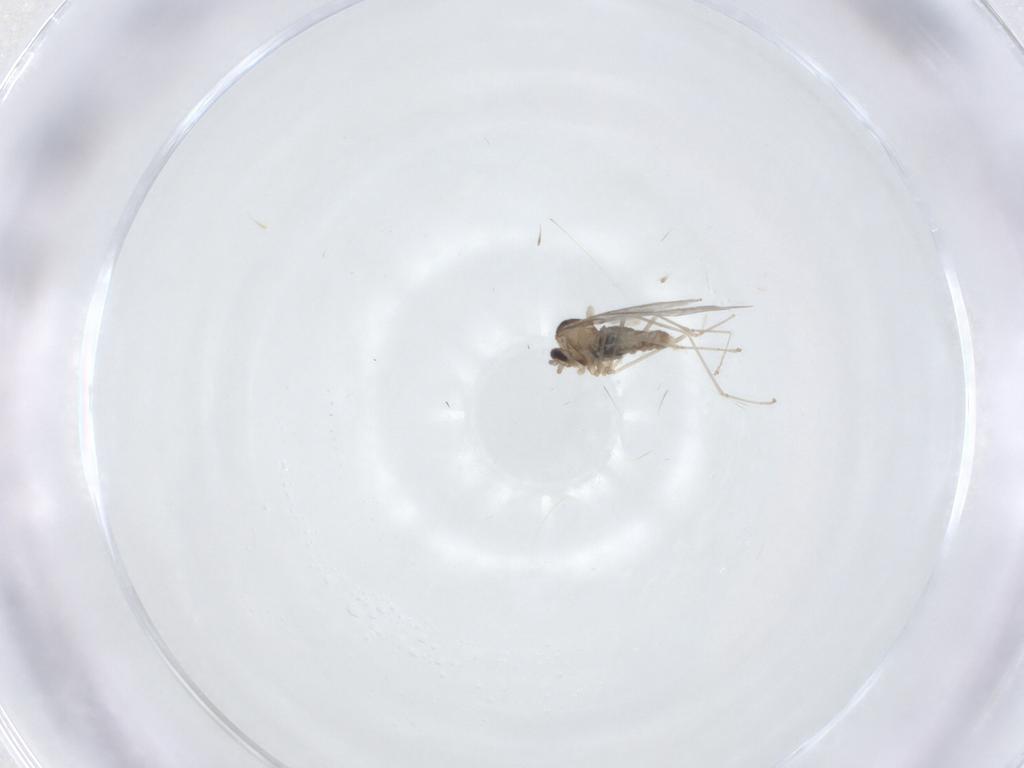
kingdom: Animalia
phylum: Arthropoda
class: Insecta
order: Diptera
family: Cecidomyiidae
